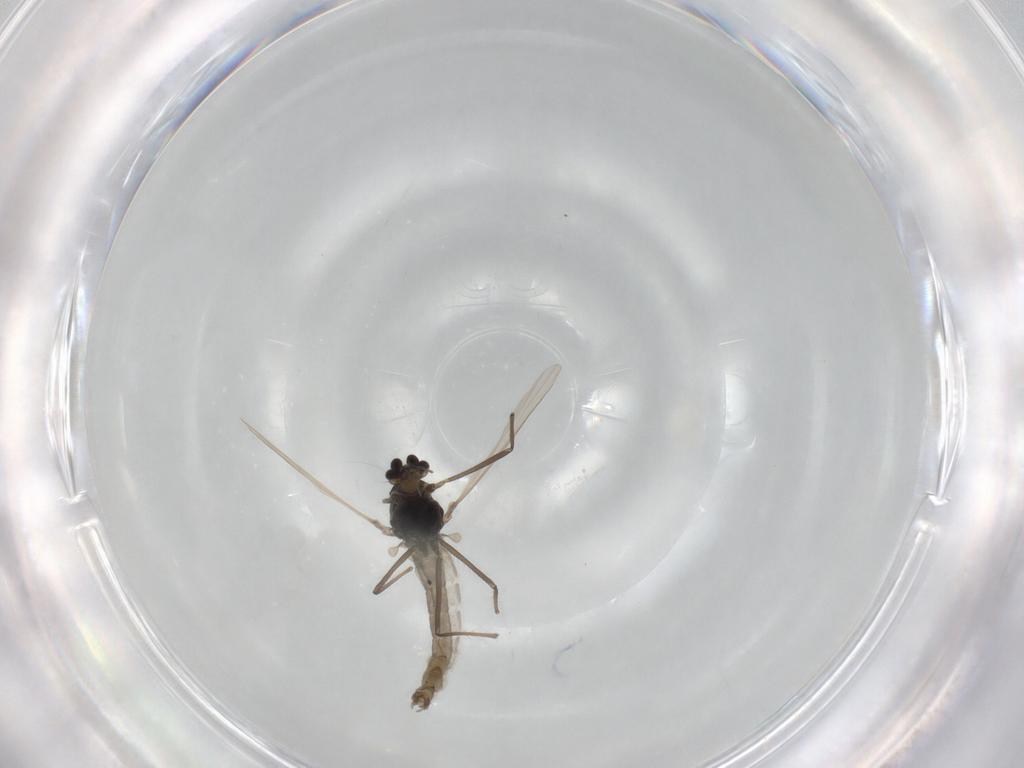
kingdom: Animalia
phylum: Arthropoda
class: Insecta
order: Diptera
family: Chironomidae
